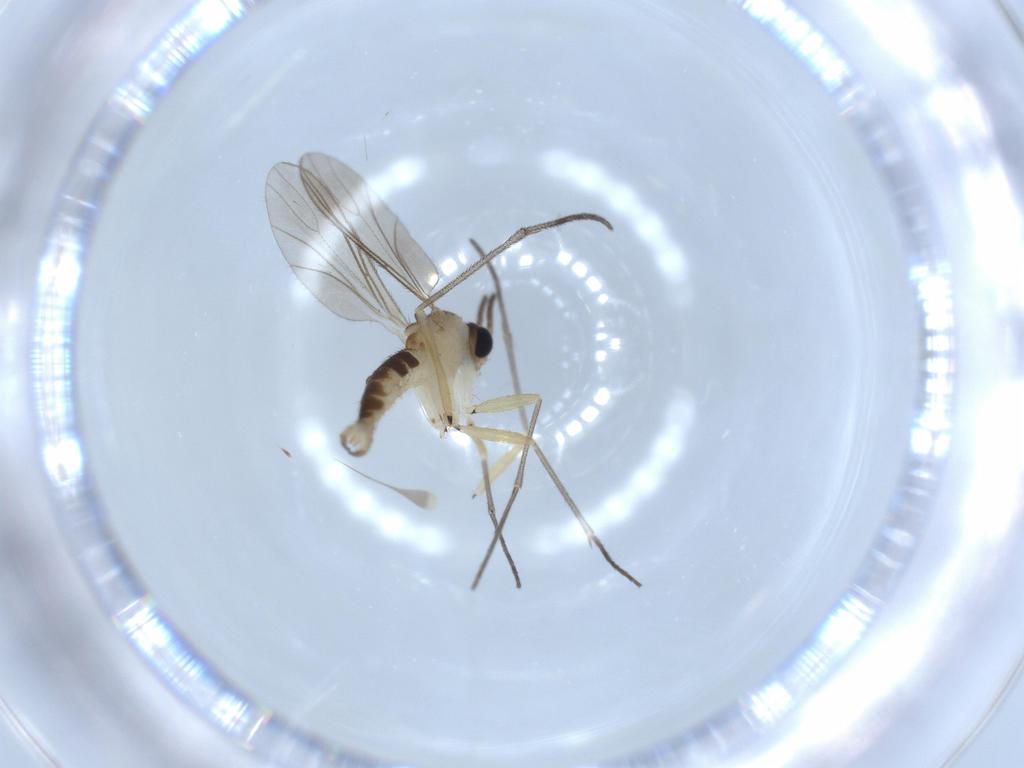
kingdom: Animalia
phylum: Arthropoda
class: Insecta
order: Diptera
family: Sciaridae
